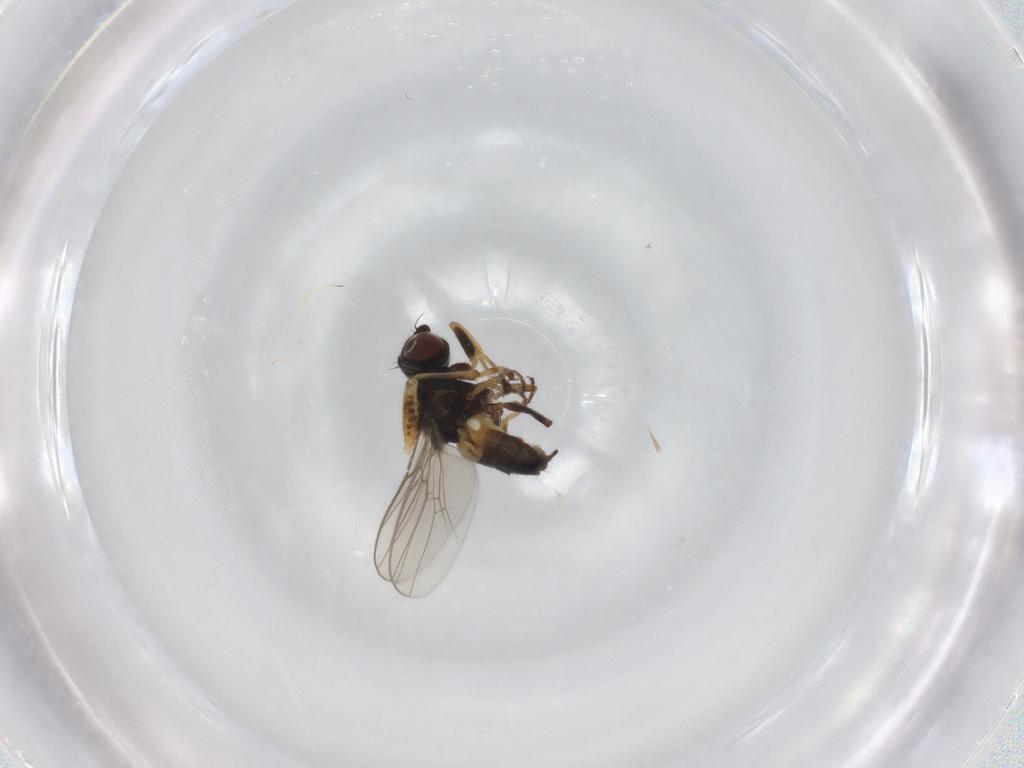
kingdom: Animalia
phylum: Arthropoda
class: Insecta
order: Diptera
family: Chloropidae
